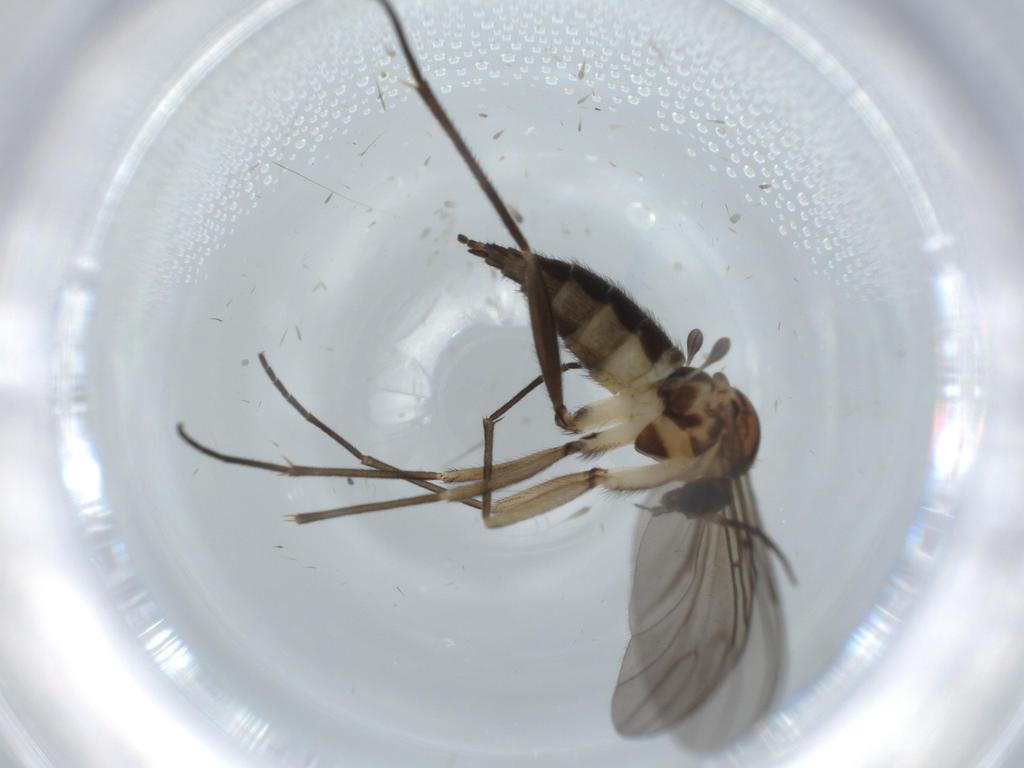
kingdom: Animalia
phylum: Arthropoda
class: Insecta
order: Diptera
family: Sciaridae
